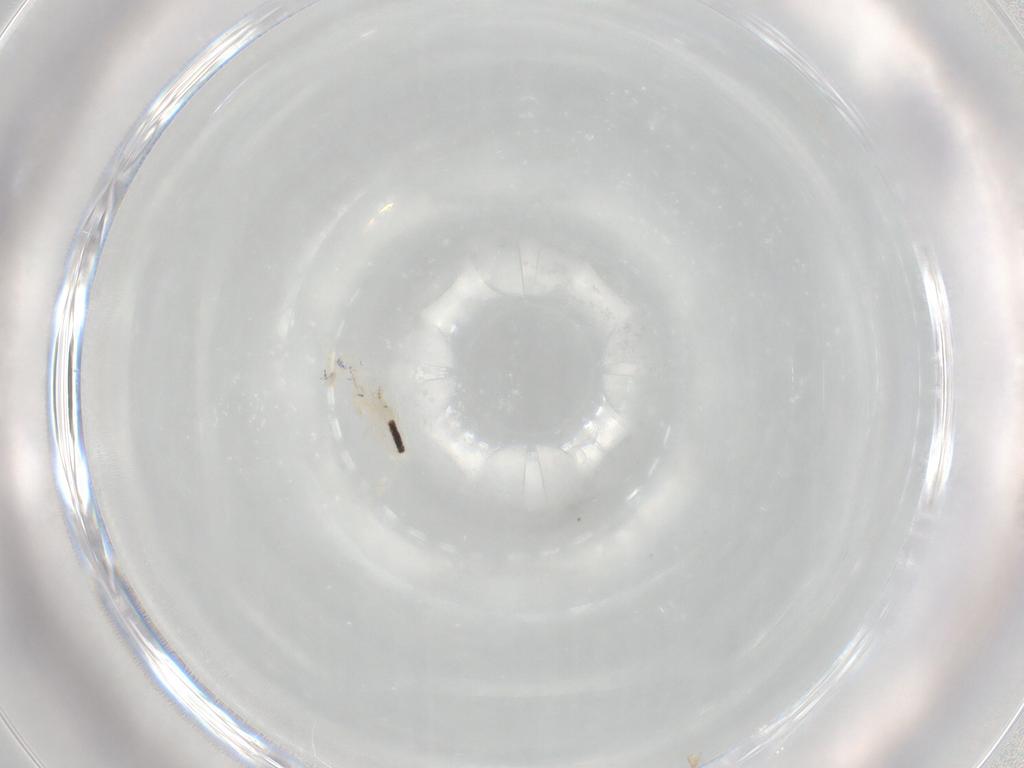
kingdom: Animalia
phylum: Arthropoda
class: Collembola
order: Entomobryomorpha
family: Entomobryidae
